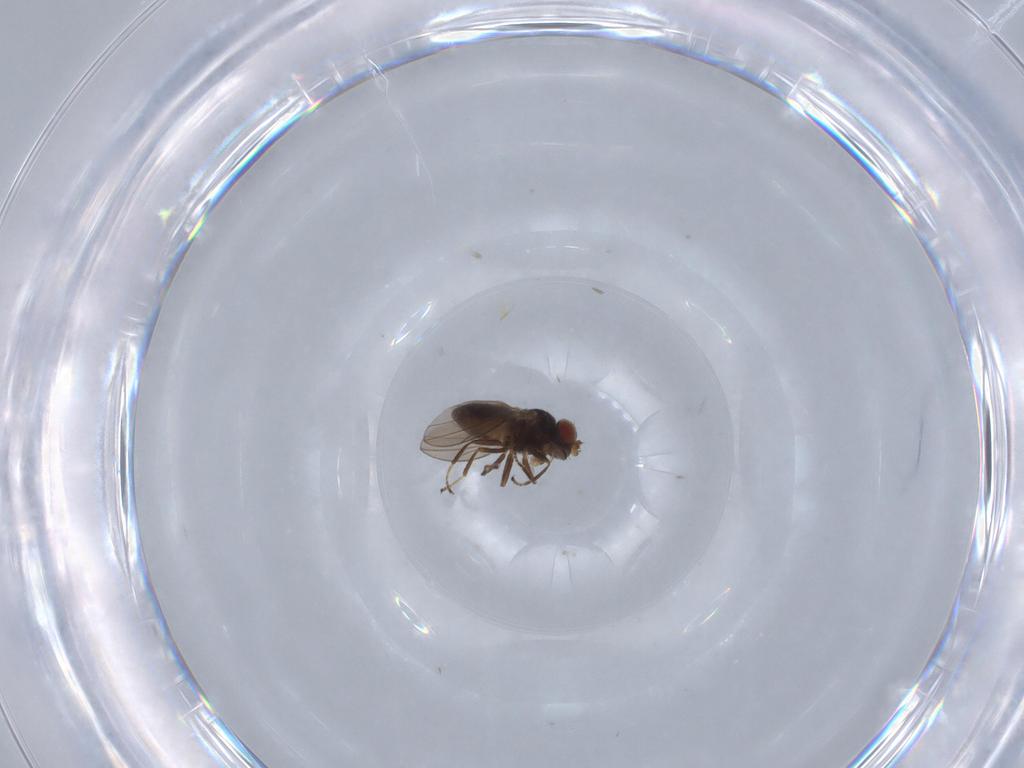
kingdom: Animalia
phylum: Arthropoda
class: Insecta
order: Diptera
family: Ephydridae
